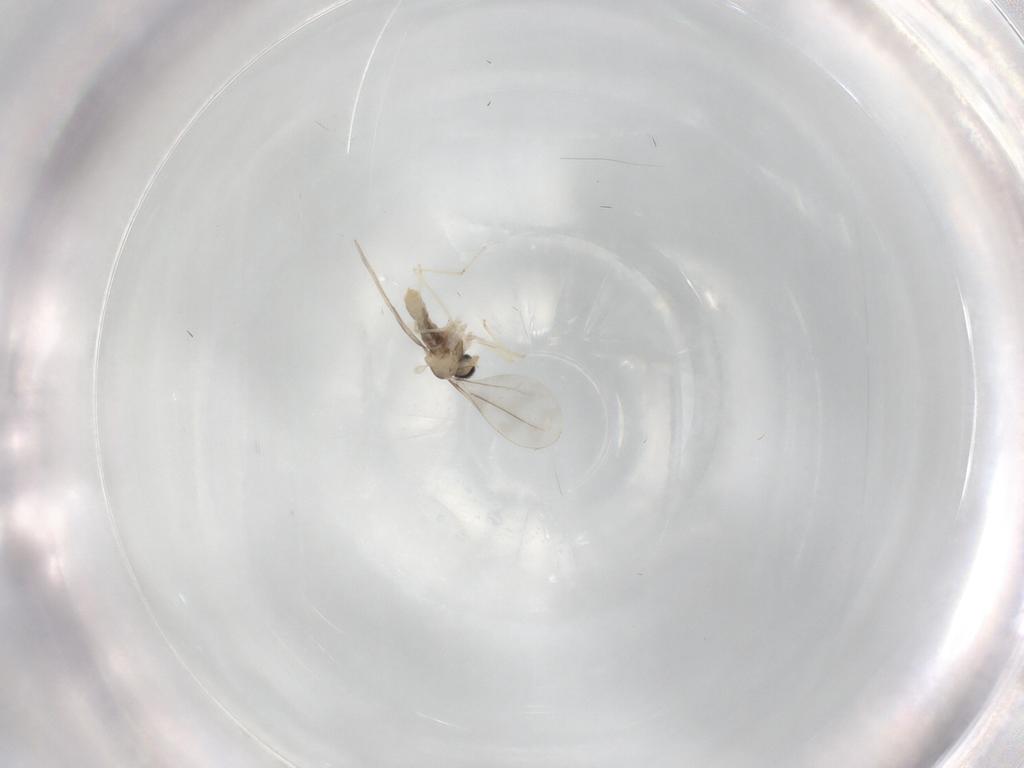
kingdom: Animalia
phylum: Arthropoda
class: Insecta
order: Diptera
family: Cecidomyiidae
